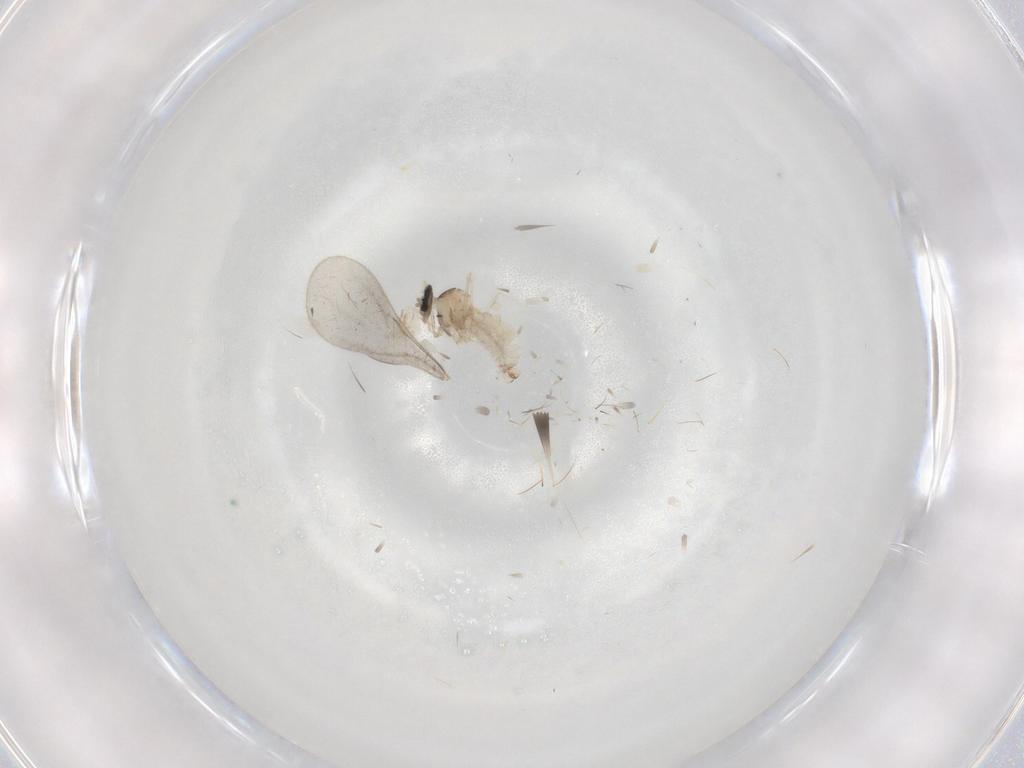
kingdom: Animalia
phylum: Arthropoda
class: Insecta
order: Diptera
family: Cecidomyiidae
